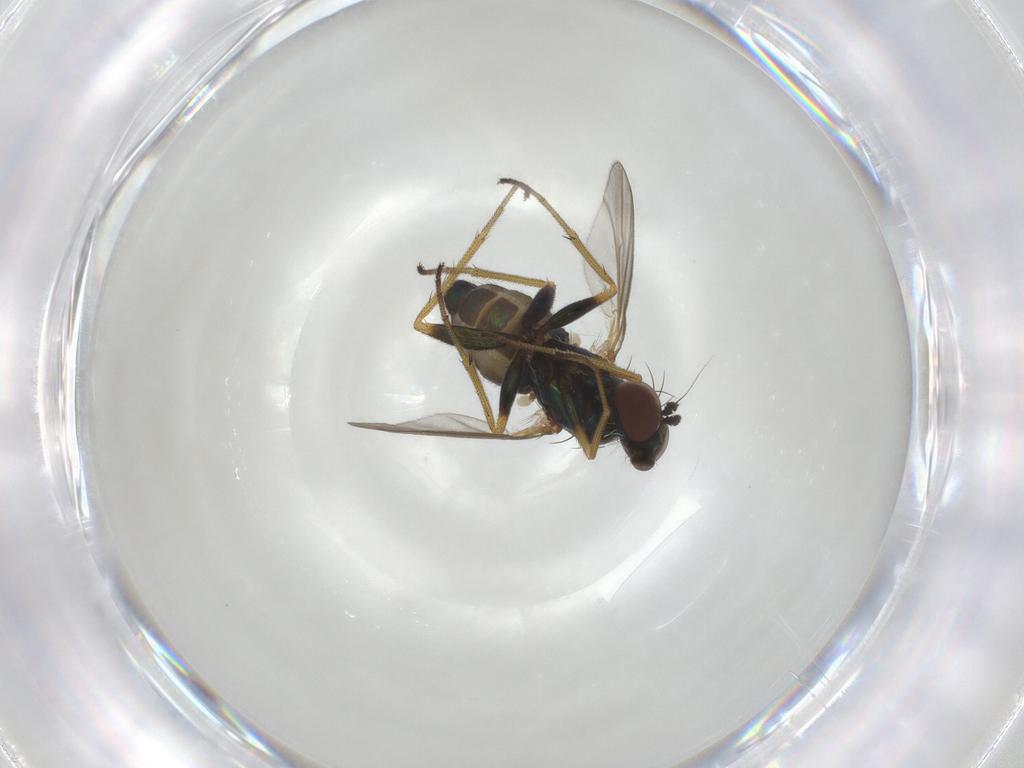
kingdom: Animalia
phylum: Arthropoda
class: Insecta
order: Diptera
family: Dolichopodidae
